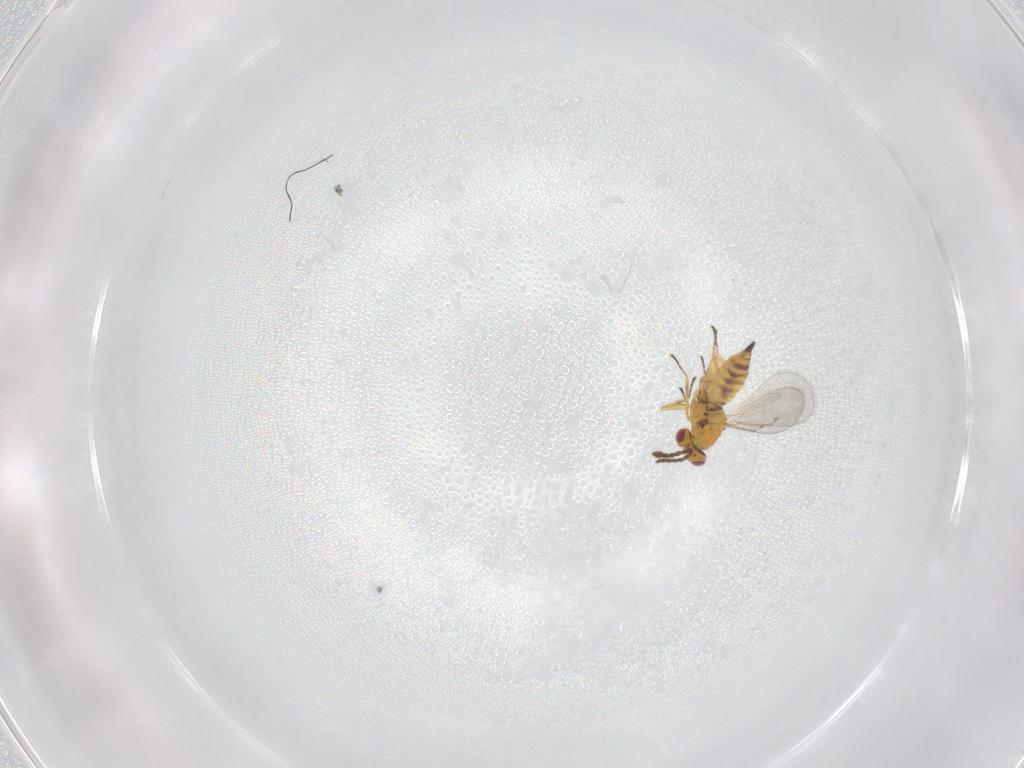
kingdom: Animalia
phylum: Arthropoda
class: Insecta
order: Hymenoptera
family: Eulophidae
